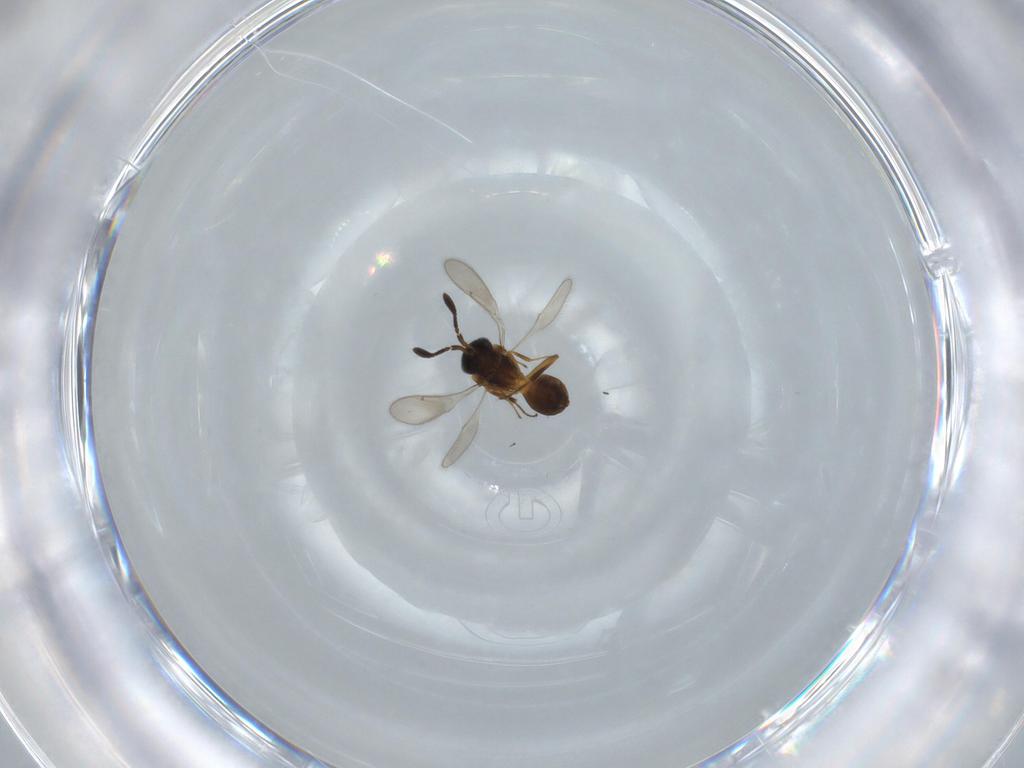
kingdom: Animalia
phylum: Arthropoda
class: Insecta
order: Hymenoptera
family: Scelionidae
